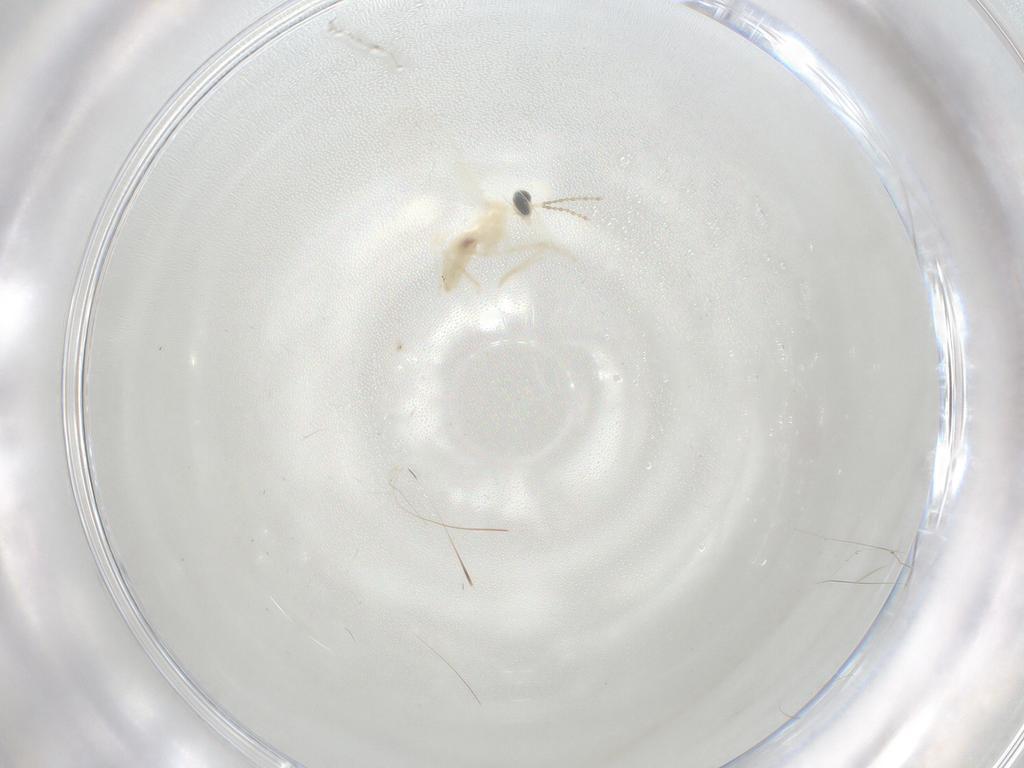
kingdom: Animalia
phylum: Arthropoda
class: Insecta
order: Diptera
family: Cecidomyiidae
